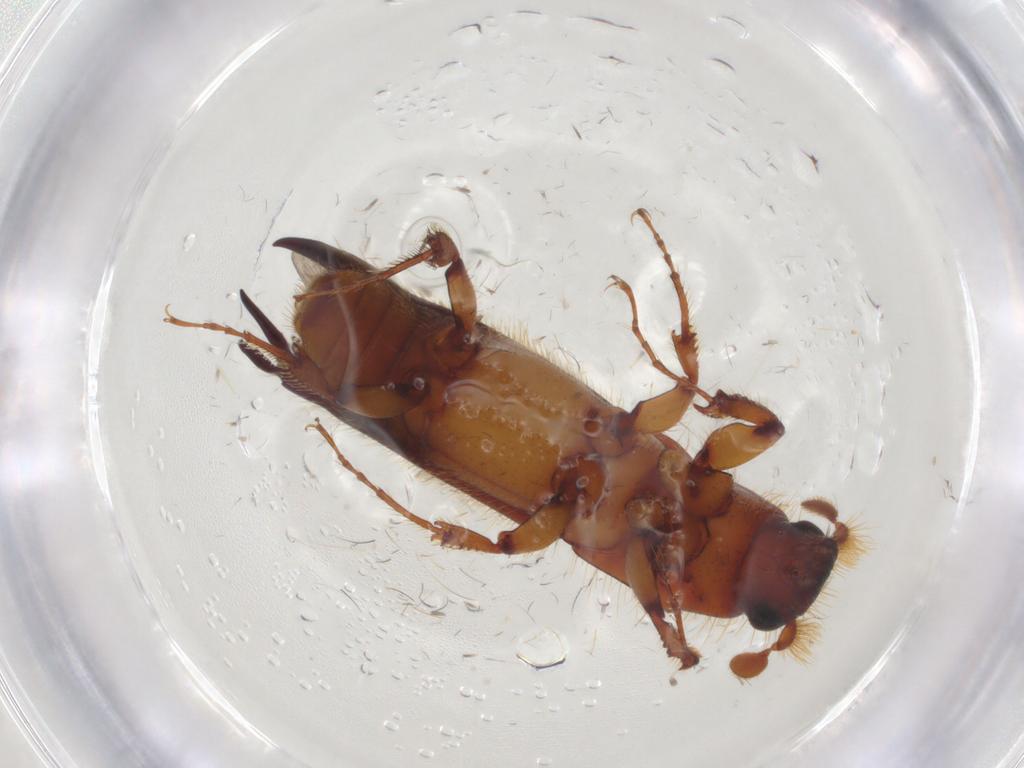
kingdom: Animalia
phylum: Arthropoda
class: Insecta
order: Coleoptera
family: Curculionidae
